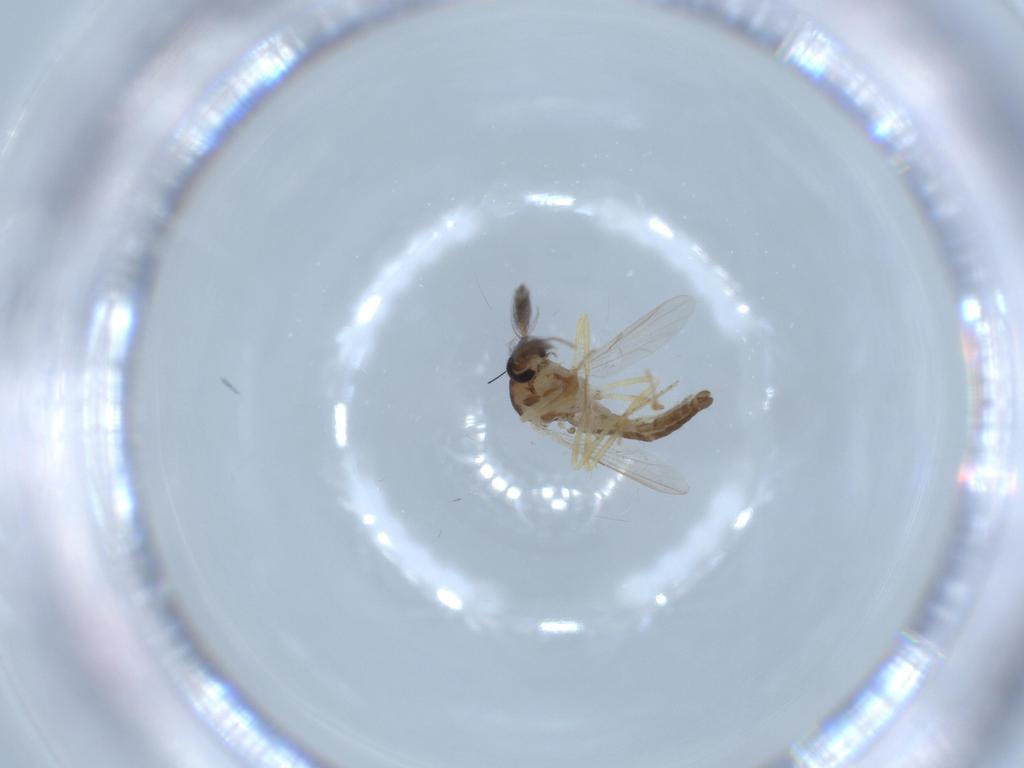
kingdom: Animalia
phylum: Arthropoda
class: Insecta
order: Diptera
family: Ceratopogonidae
